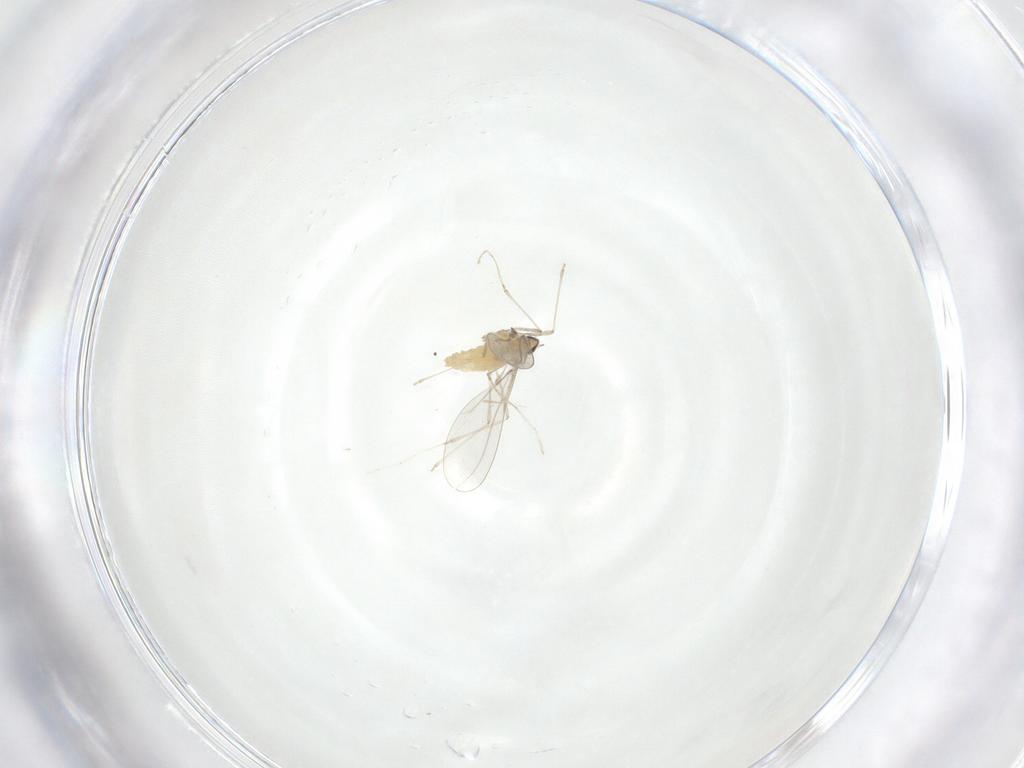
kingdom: Animalia
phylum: Arthropoda
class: Insecta
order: Diptera
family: Cecidomyiidae
